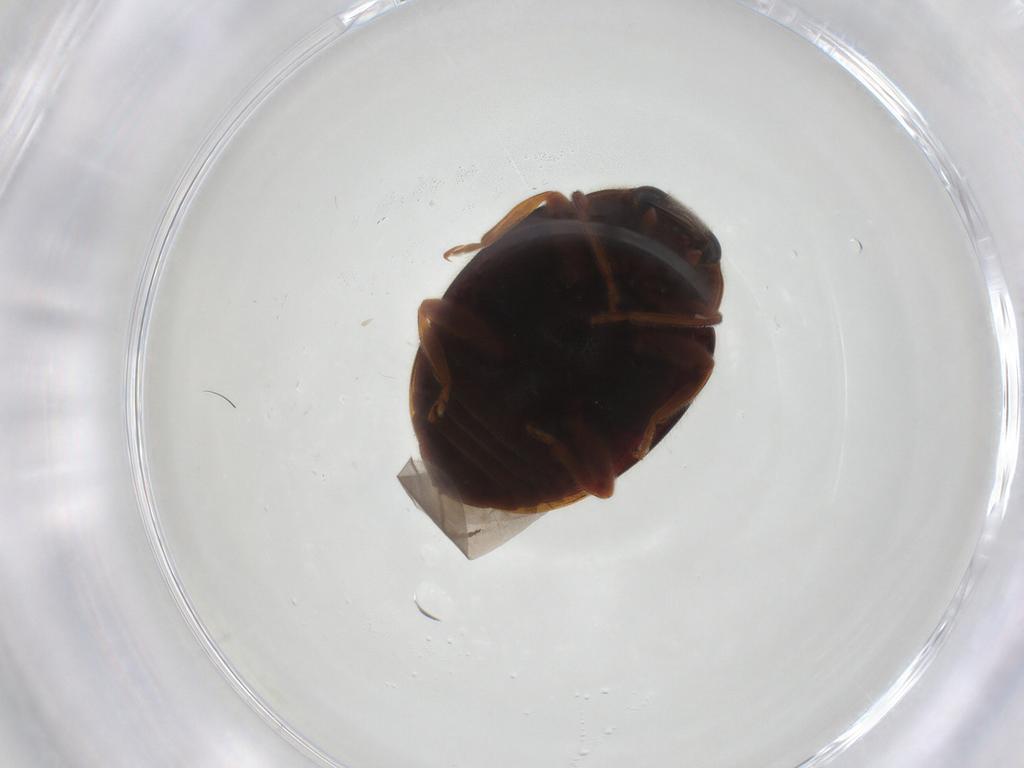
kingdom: Animalia
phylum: Arthropoda
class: Insecta
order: Coleoptera
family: Coccinellidae
